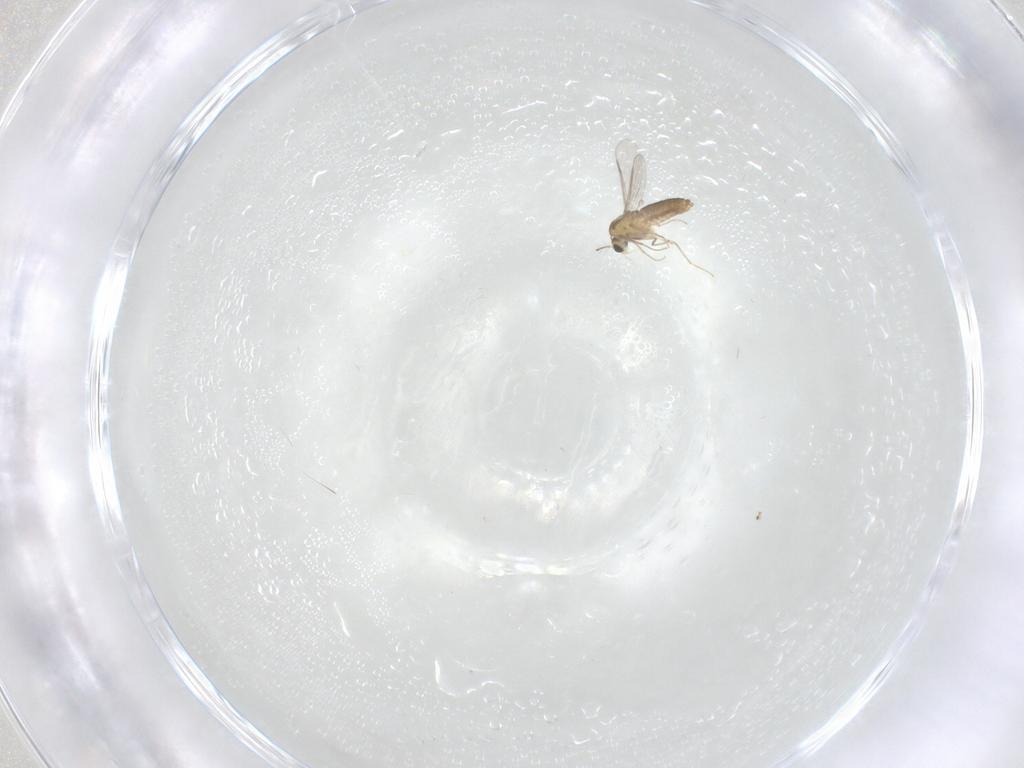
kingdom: Animalia
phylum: Arthropoda
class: Insecta
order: Diptera
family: Chironomidae
